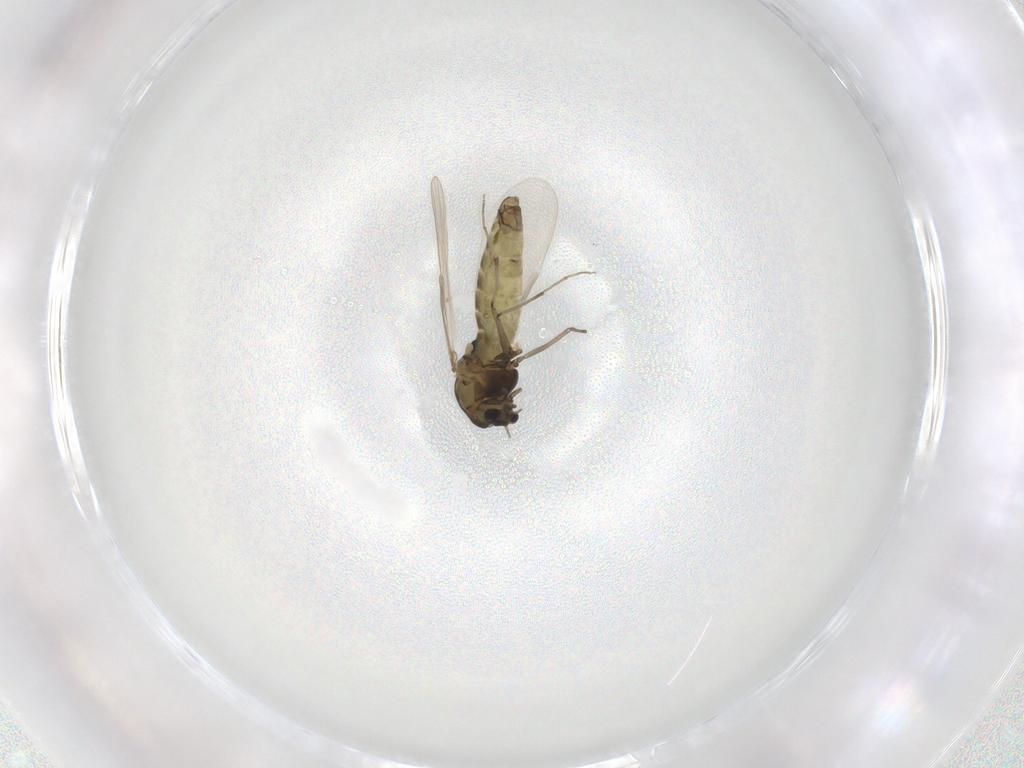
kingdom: Animalia
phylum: Arthropoda
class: Insecta
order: Diptera
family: Chironomidae
